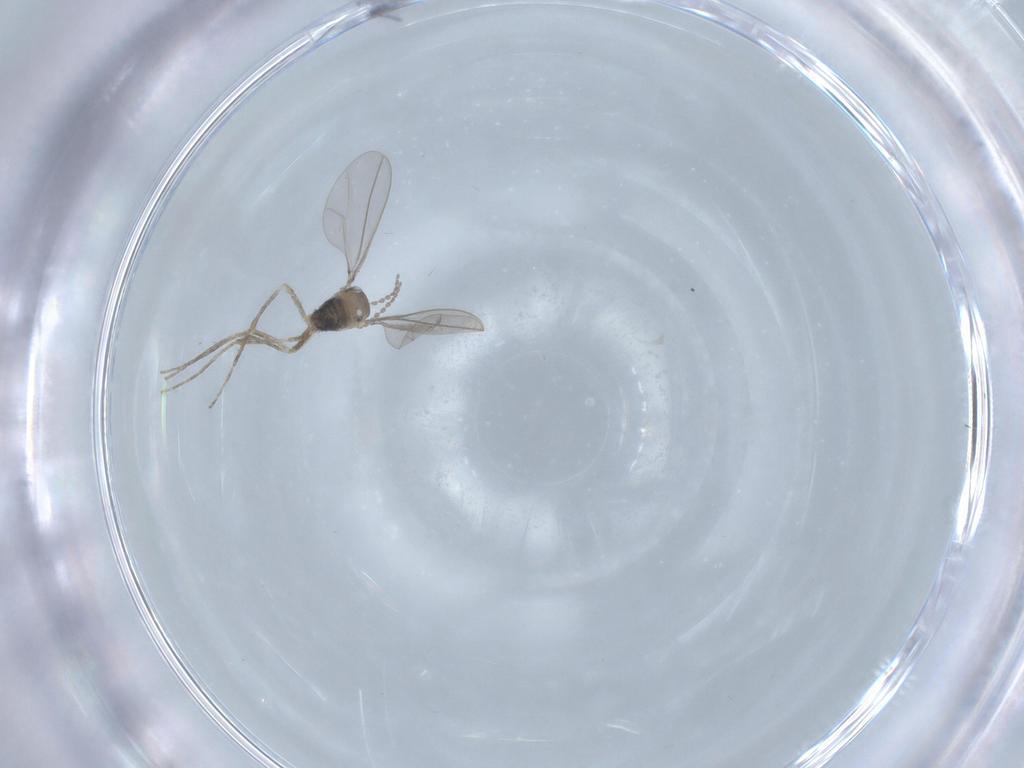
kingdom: Animalia
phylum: Arthropoda
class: Insecta
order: Diptera
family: Chironomidae
